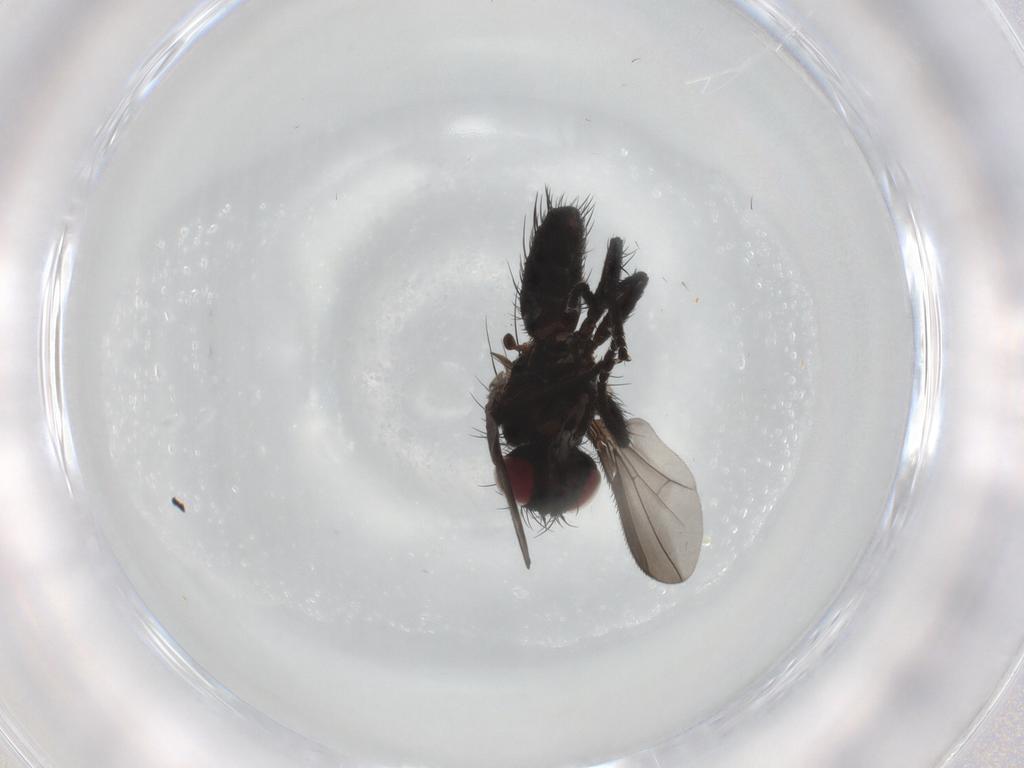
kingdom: Animalia
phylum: Arthropoda
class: Insecta
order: Diptera
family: Tachinidae
